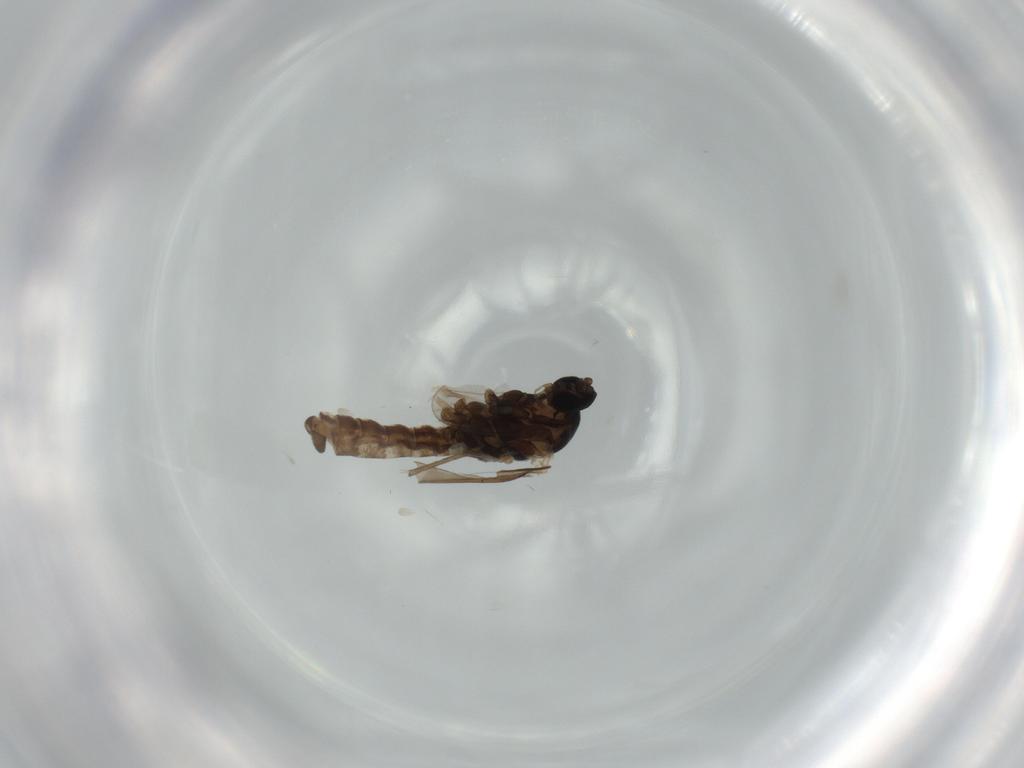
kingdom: Animalia
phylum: Arthropoda
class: Insecta
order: Diptera
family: Cecidomyiidae
